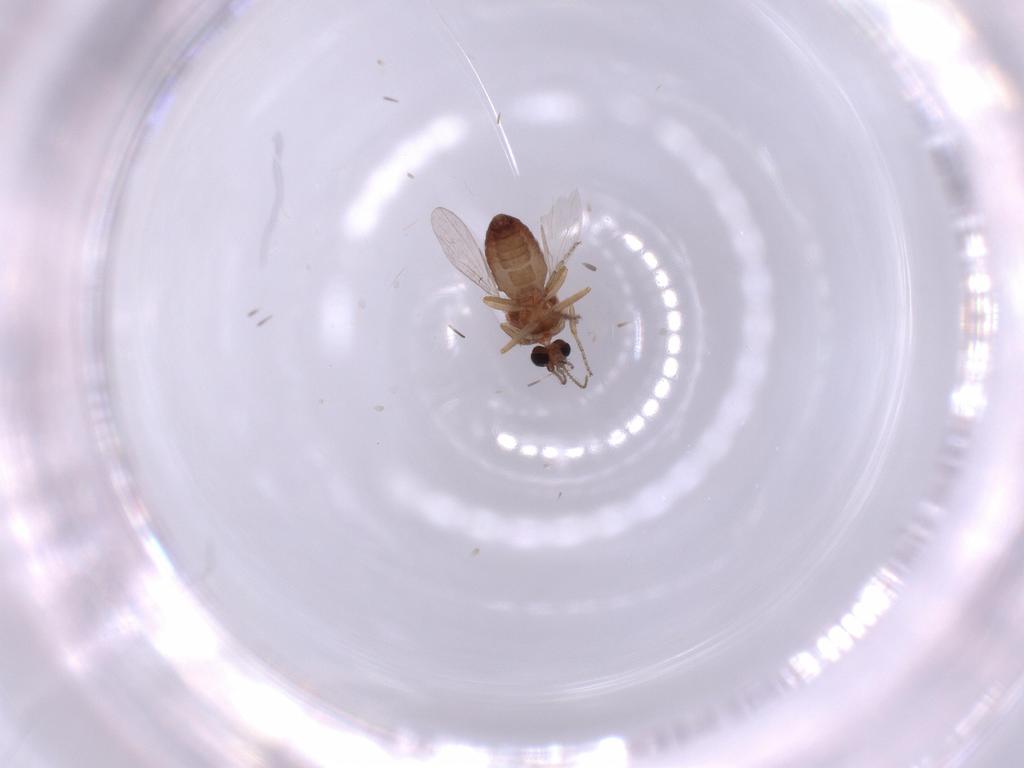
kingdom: Animalia
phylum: Arthropoda
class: Insecta
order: Diptera
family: Ceratopogonidae
